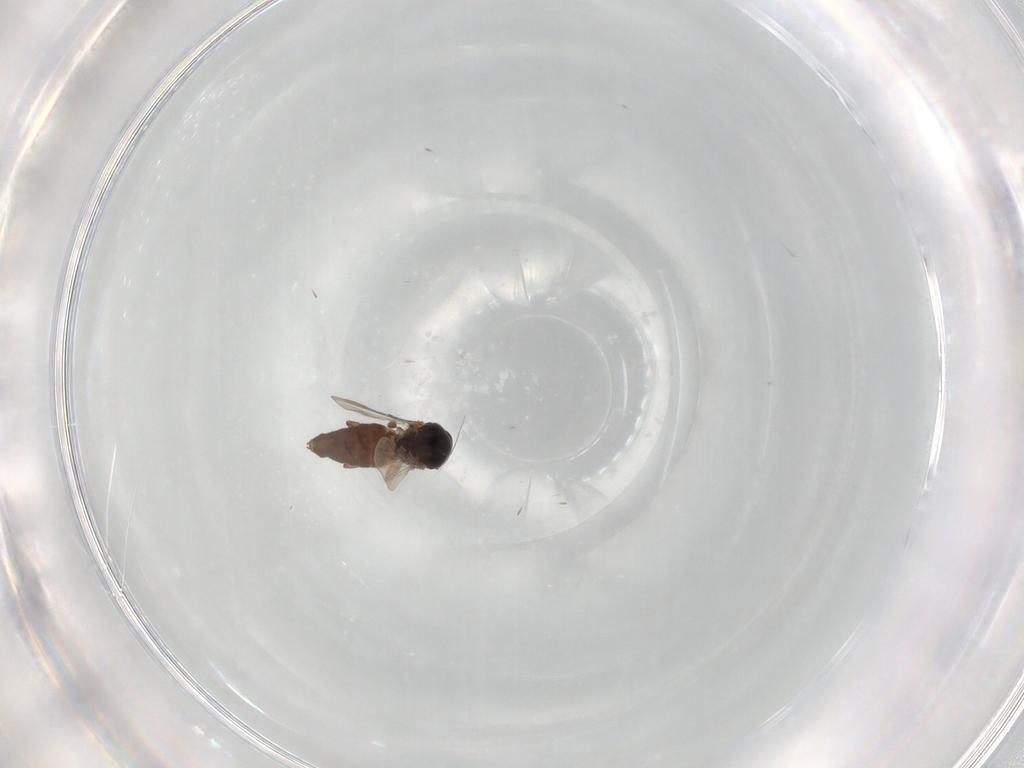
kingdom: Animalia
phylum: Arthropoda
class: Insecta
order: Diptera
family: Ceratopogonidae
